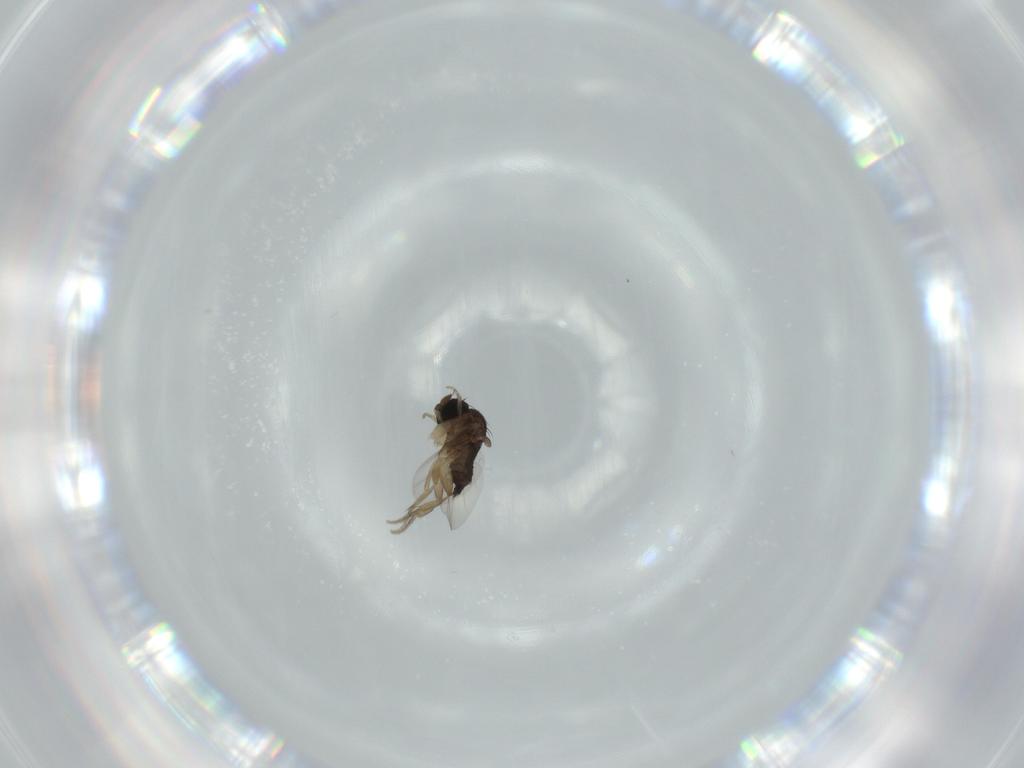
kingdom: Animalia
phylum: Arthropoda
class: Insecta
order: Diptera
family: Phoridae
